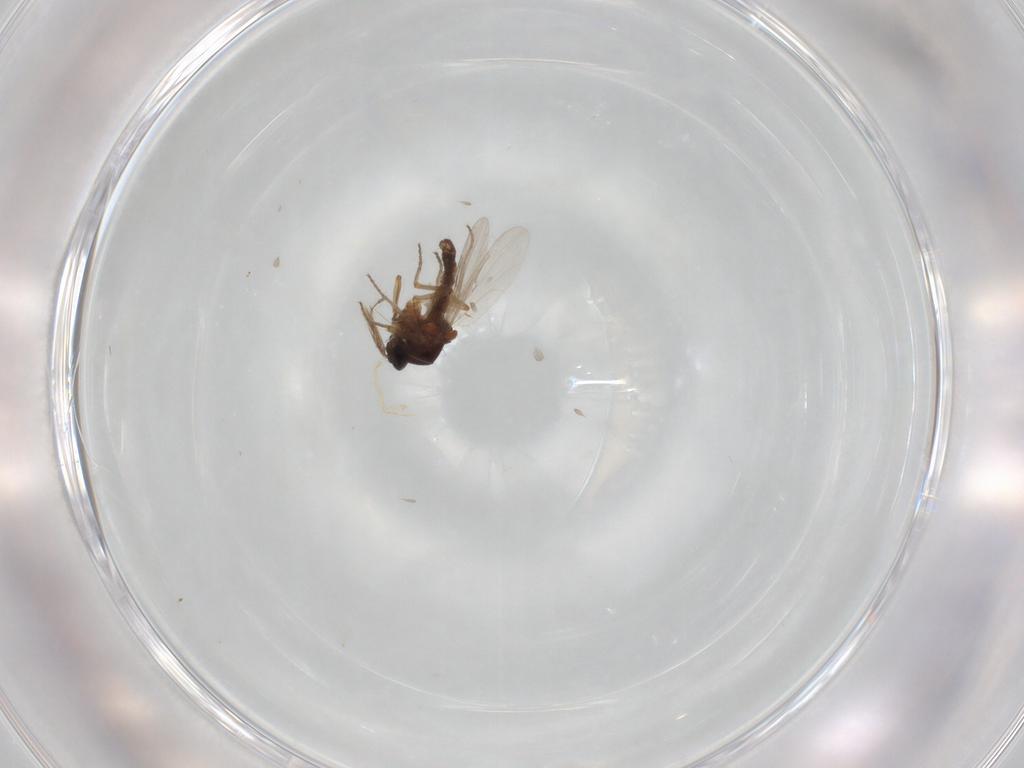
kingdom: Animalia
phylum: Arthropoda
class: Insecta
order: Diptera
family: Ceratopogonidae
